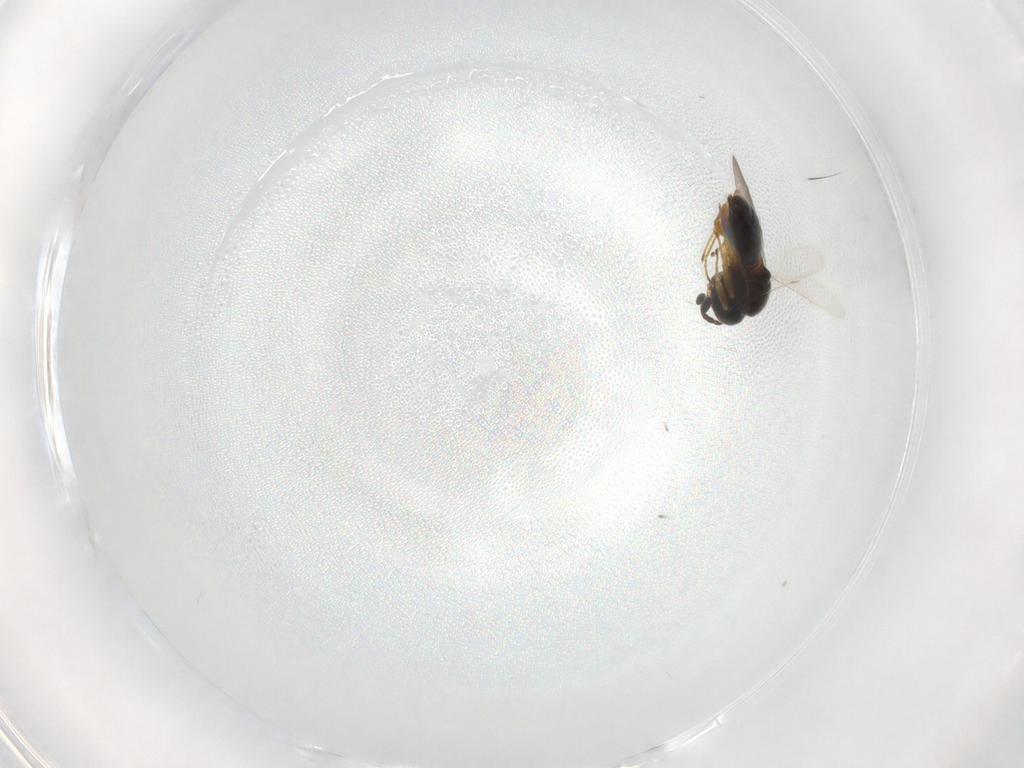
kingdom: Animalia
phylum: Arthropoda
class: Insecta
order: Hymenoptera
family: Scelionidae
